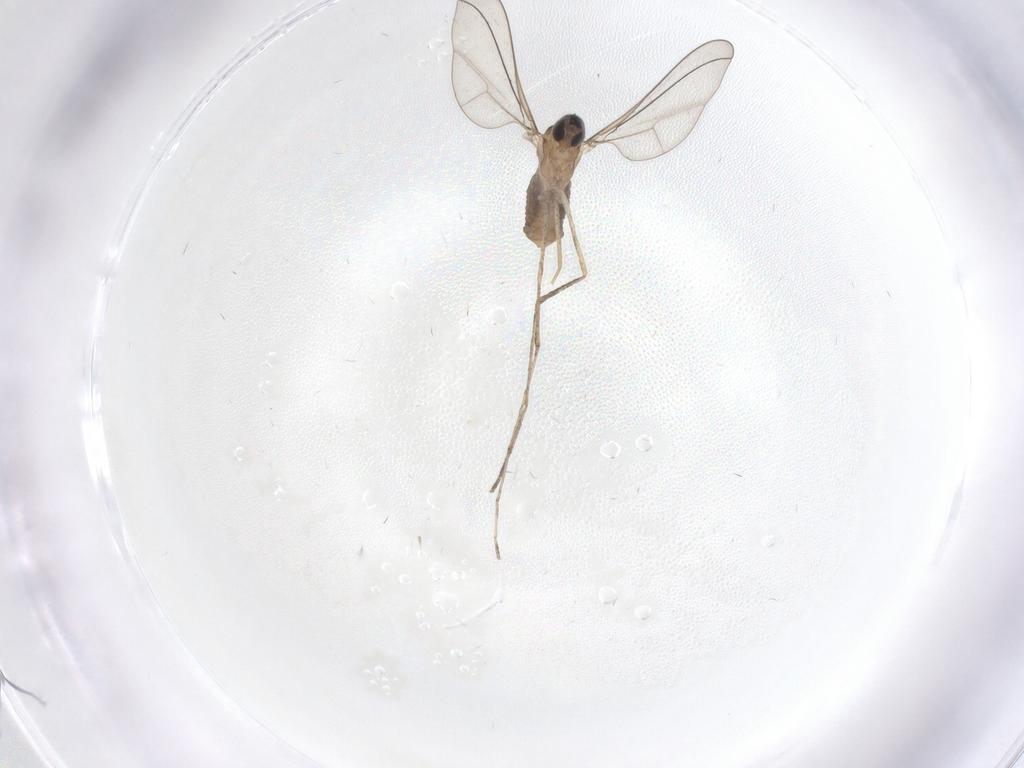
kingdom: Animalia
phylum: Arthropoda
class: Insecta
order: Diptera
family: Cecidomyiidae
